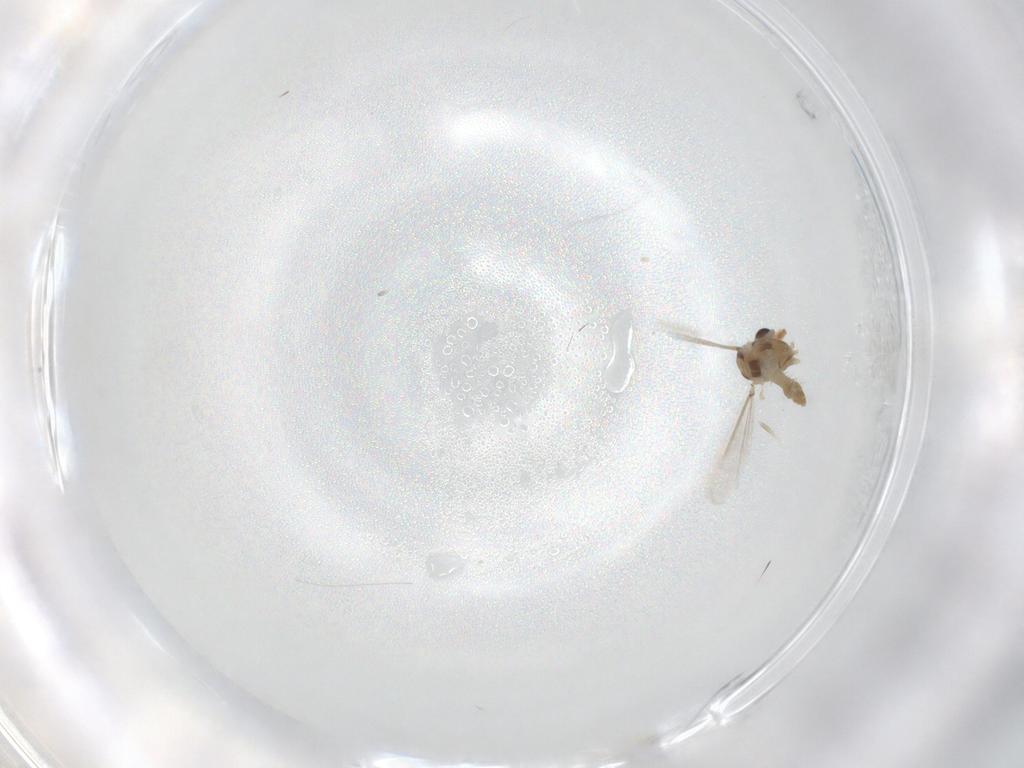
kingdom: Animalia
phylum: Arthropoda
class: Insecta
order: Diptera
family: Chironomidae
